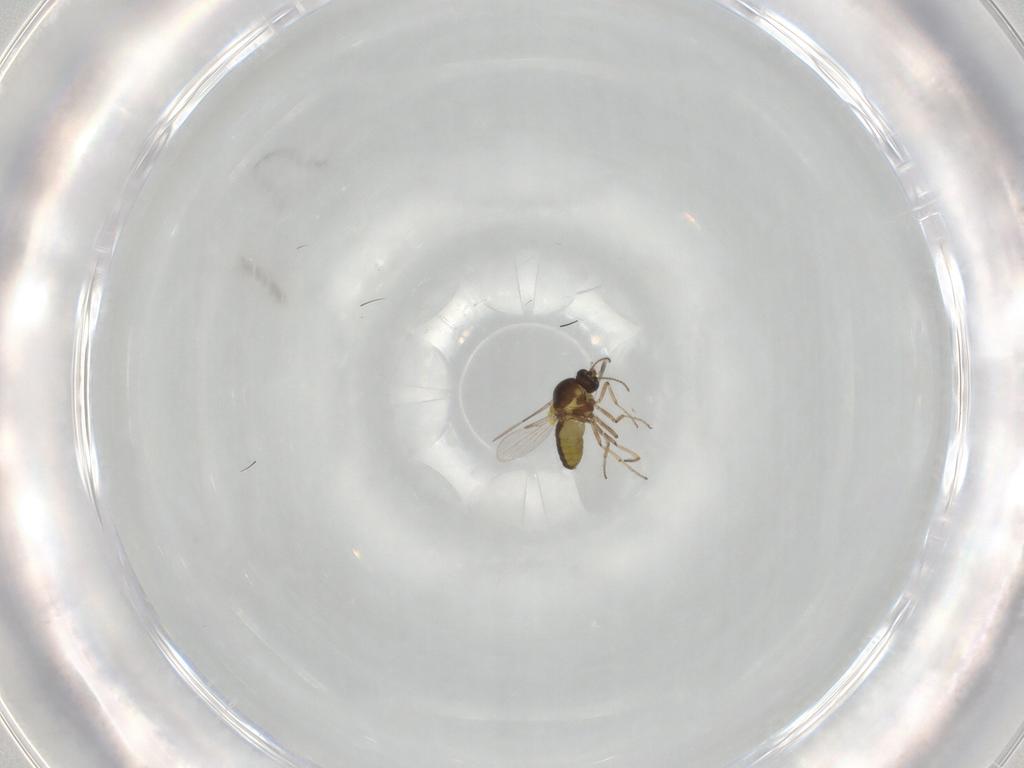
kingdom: Animalia
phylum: Arthropoda
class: Insecta
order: Diptera
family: Ceratopogonidae
